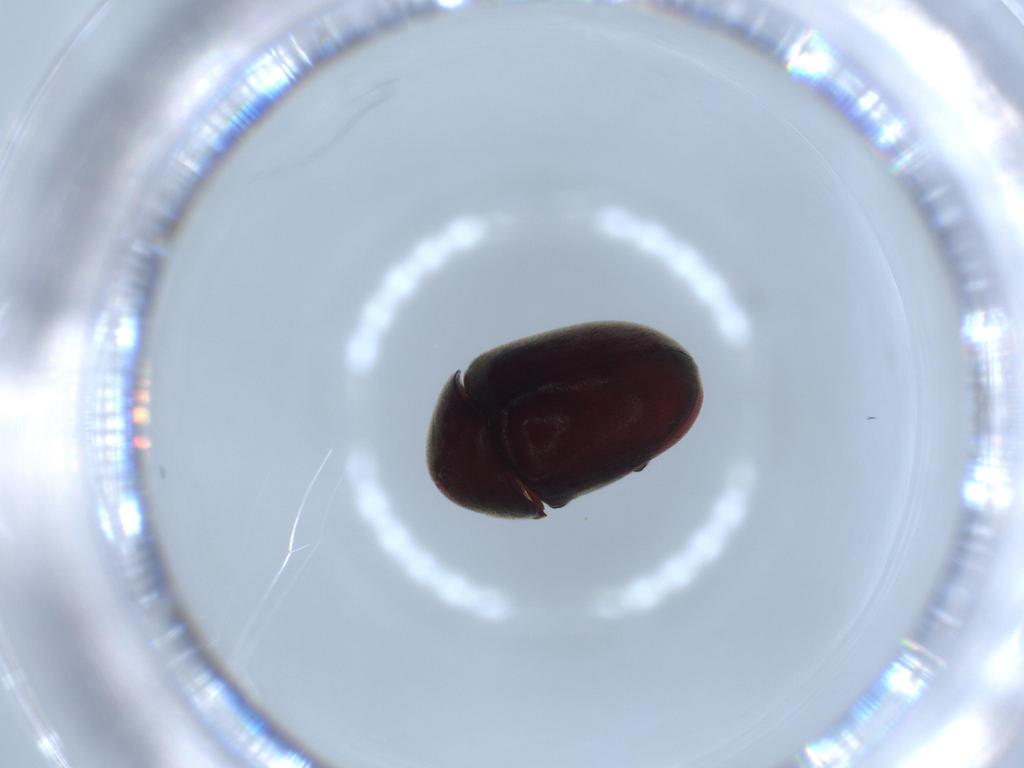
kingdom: Animalia
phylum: Arthropoda
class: Insecta
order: Coleoptera
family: Ptinidae
